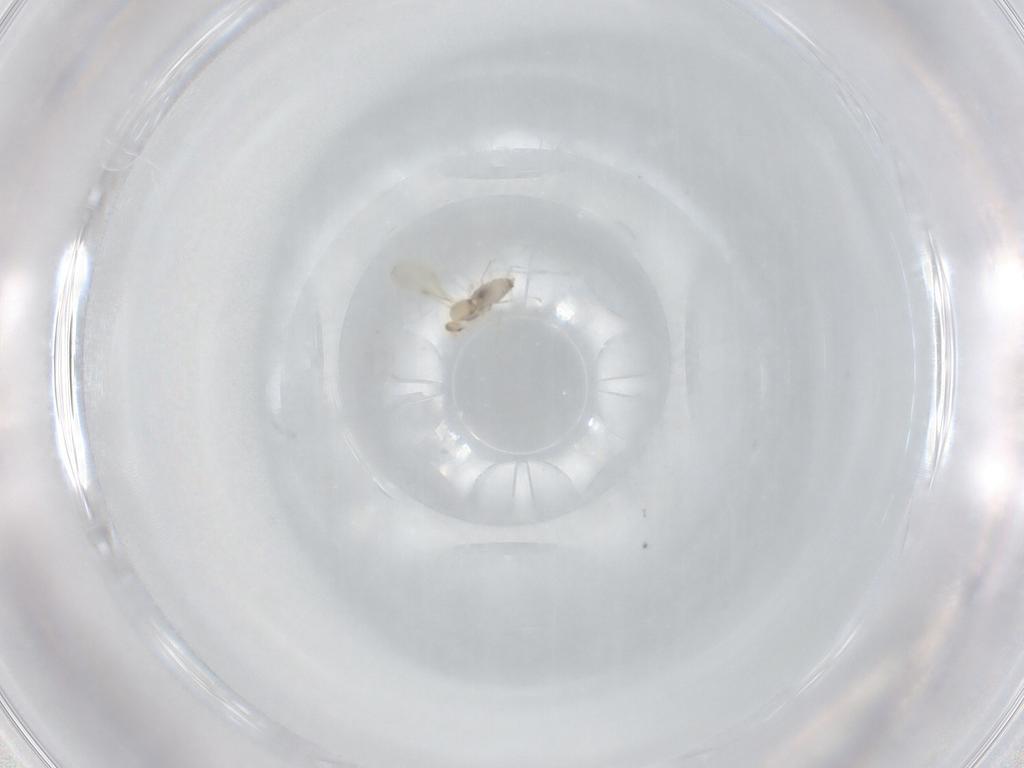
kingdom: Animalia
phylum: Arthropoda
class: Insecta
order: Diptera
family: Cecidomyiidae
